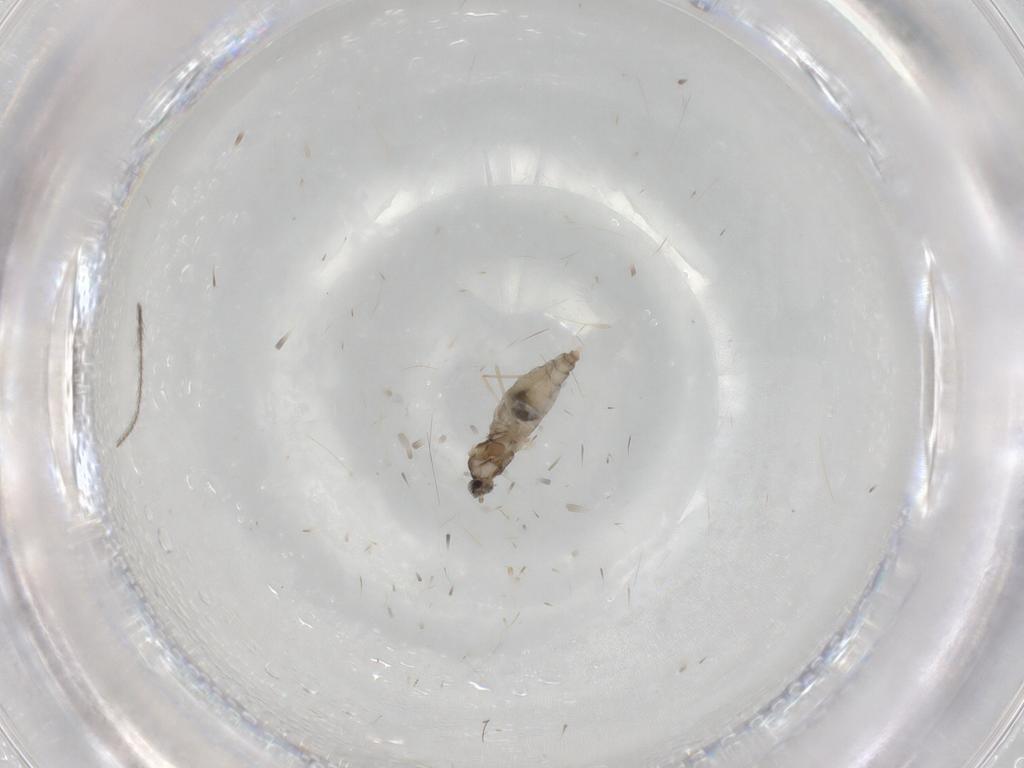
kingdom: Animalia
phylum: Arthropoda
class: Insecta
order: Diptera
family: Cecidomyiidae
